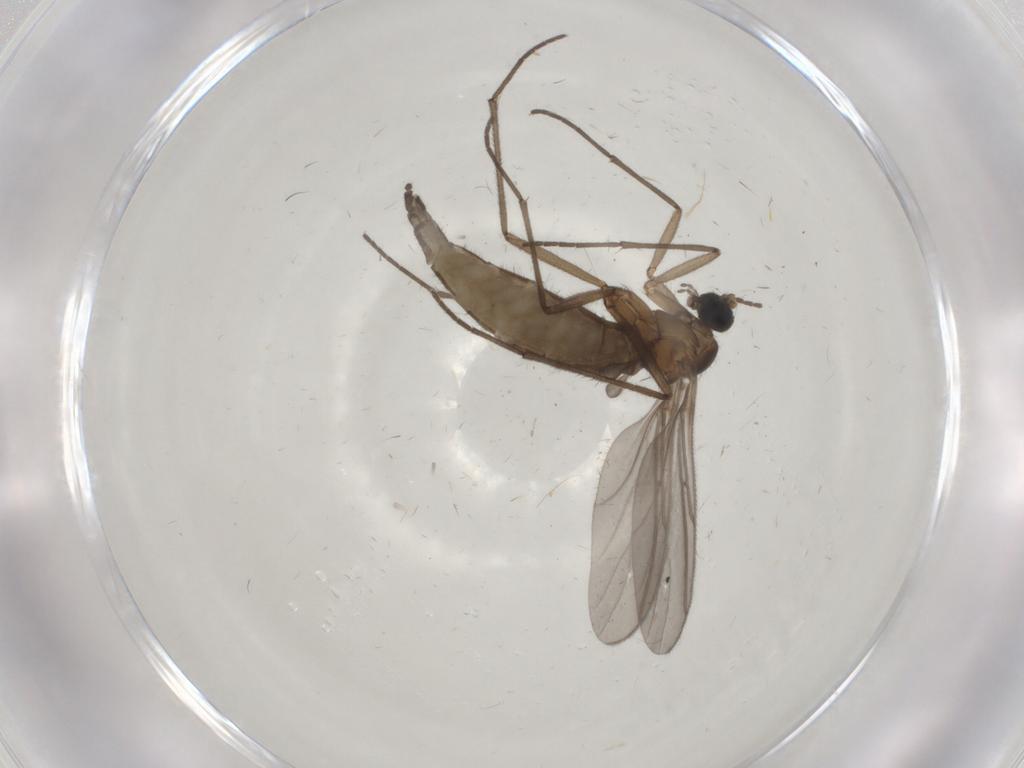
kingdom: Animalia
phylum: Arthropoda
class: Insecta
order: Diptera
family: Sciaridae
